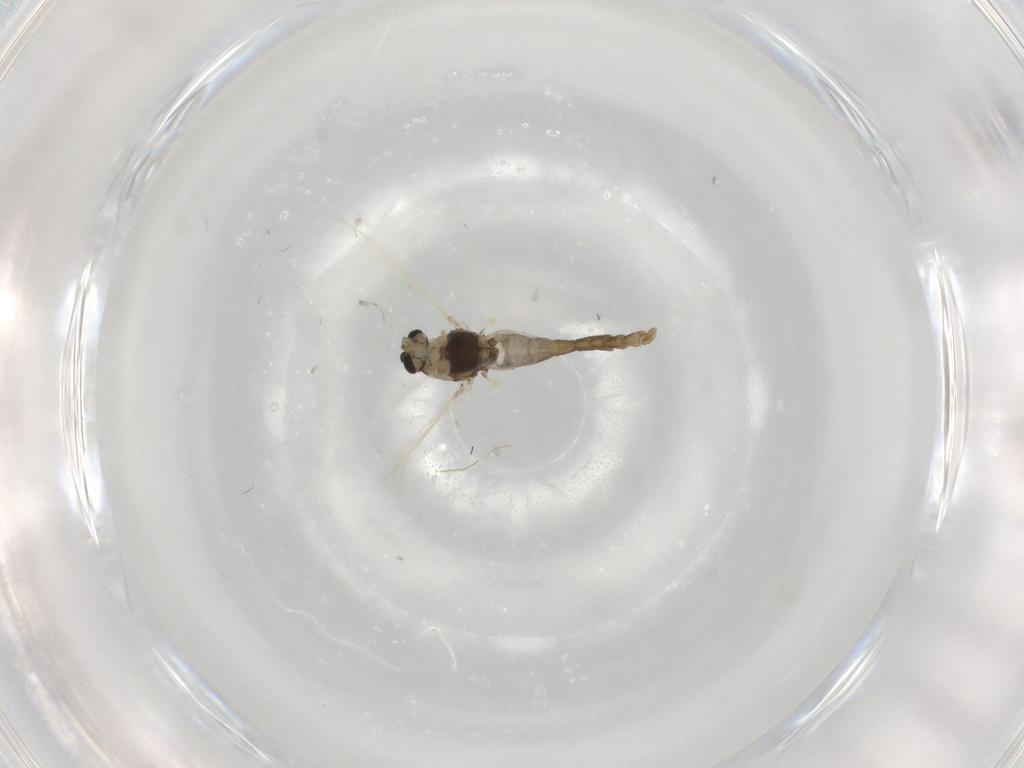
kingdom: Animalia
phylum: Arthropoda
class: Insecta
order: Diptera
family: Chironomidae
